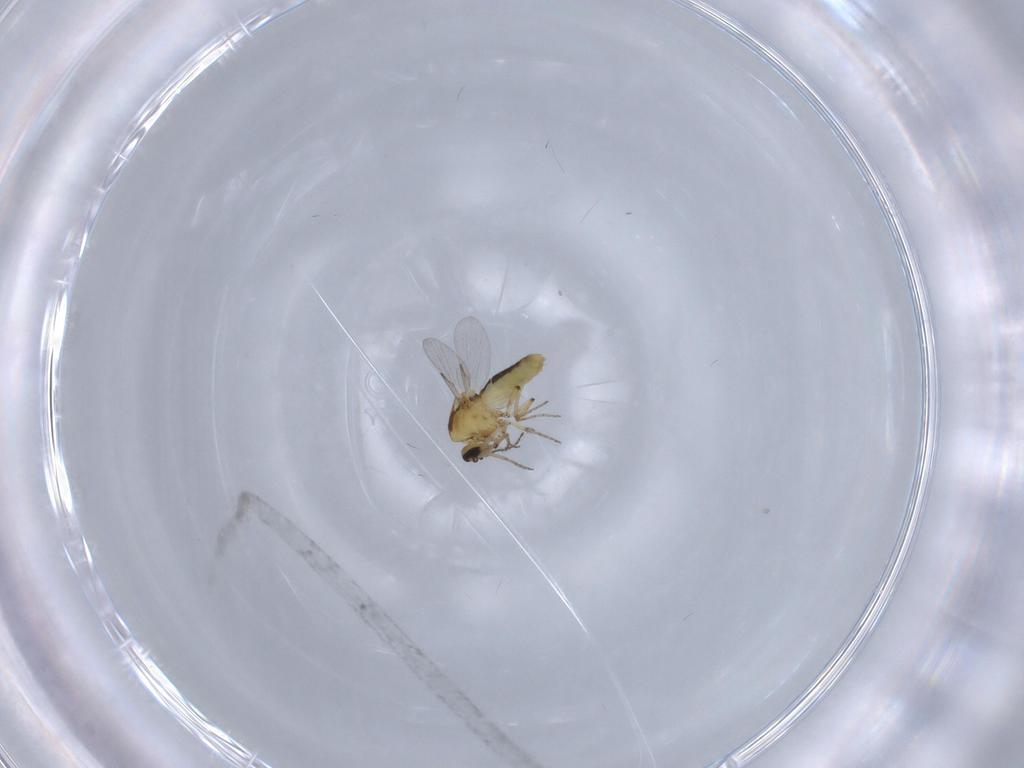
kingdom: Animalia
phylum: Arthropoda
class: Insecta
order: Diptera
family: Ceratopogonidae
